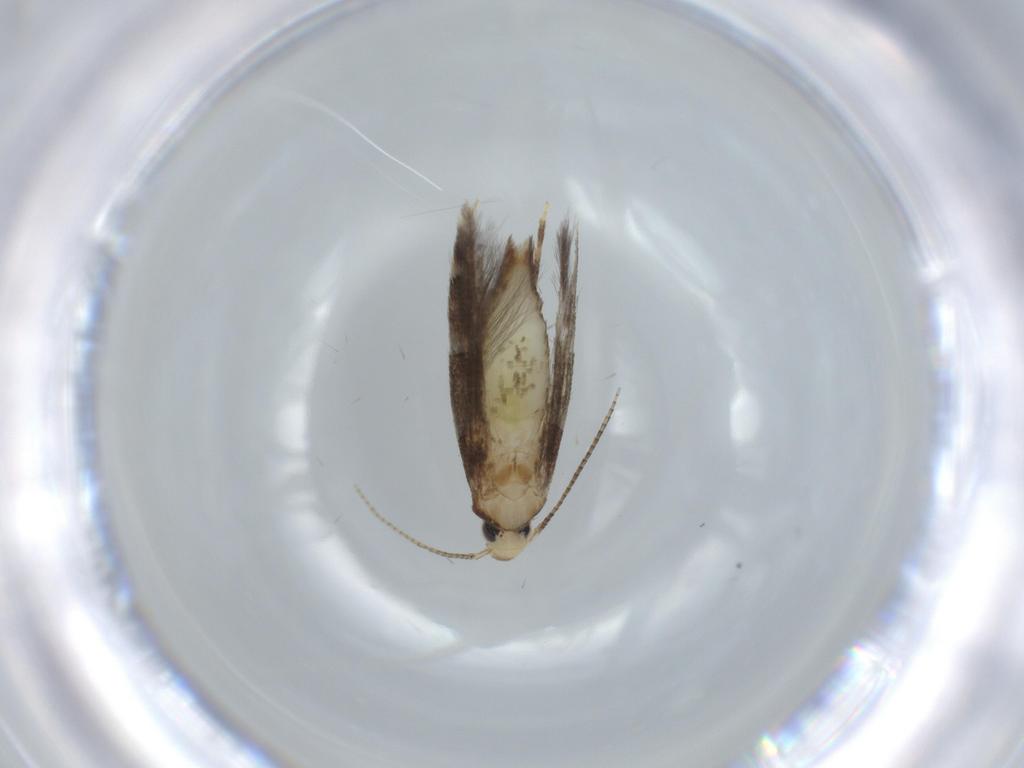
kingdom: Animalia
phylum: Arthropoda
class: Insecta
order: Lepidoptera
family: Gracillariidae
